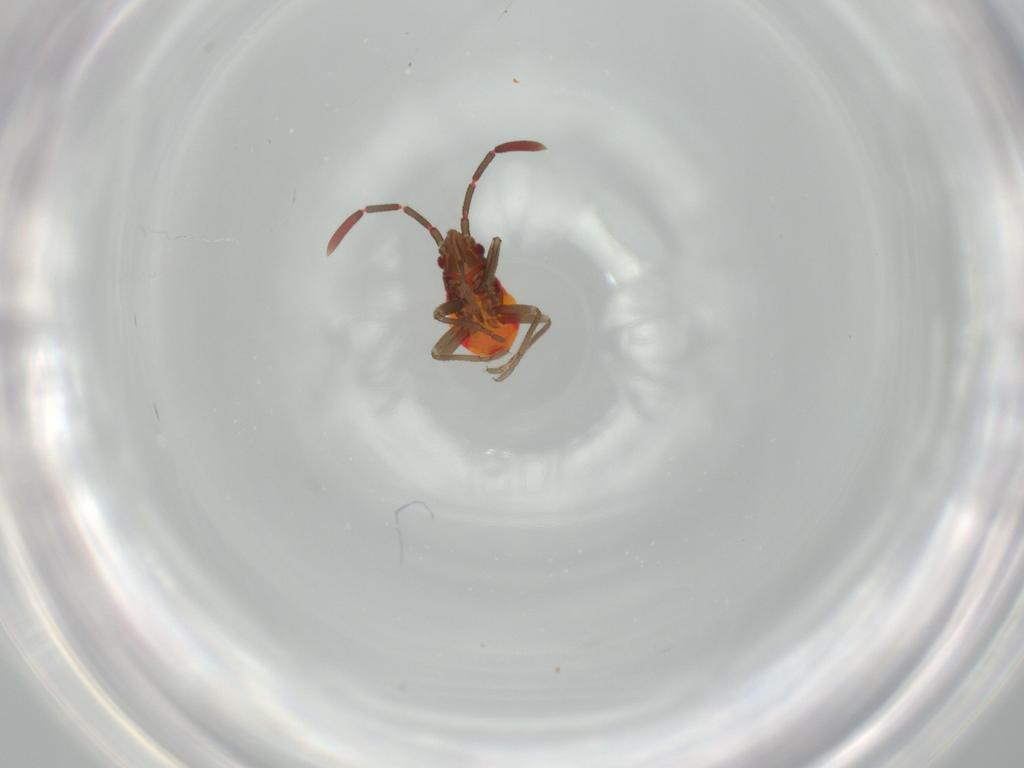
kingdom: Animalia
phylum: Arthropoda
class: Insecta
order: Hemiptera
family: Rhyparochromidae
